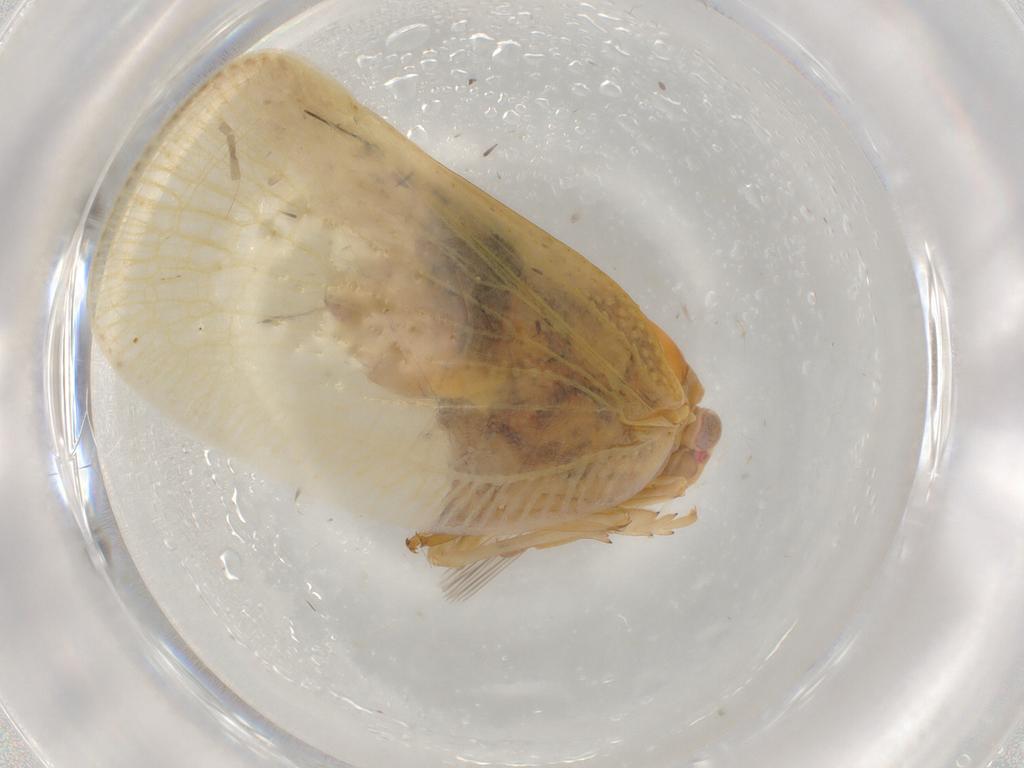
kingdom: Animalia
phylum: Arthropoda
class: Insecta
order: Hemiptera
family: Flatidae
